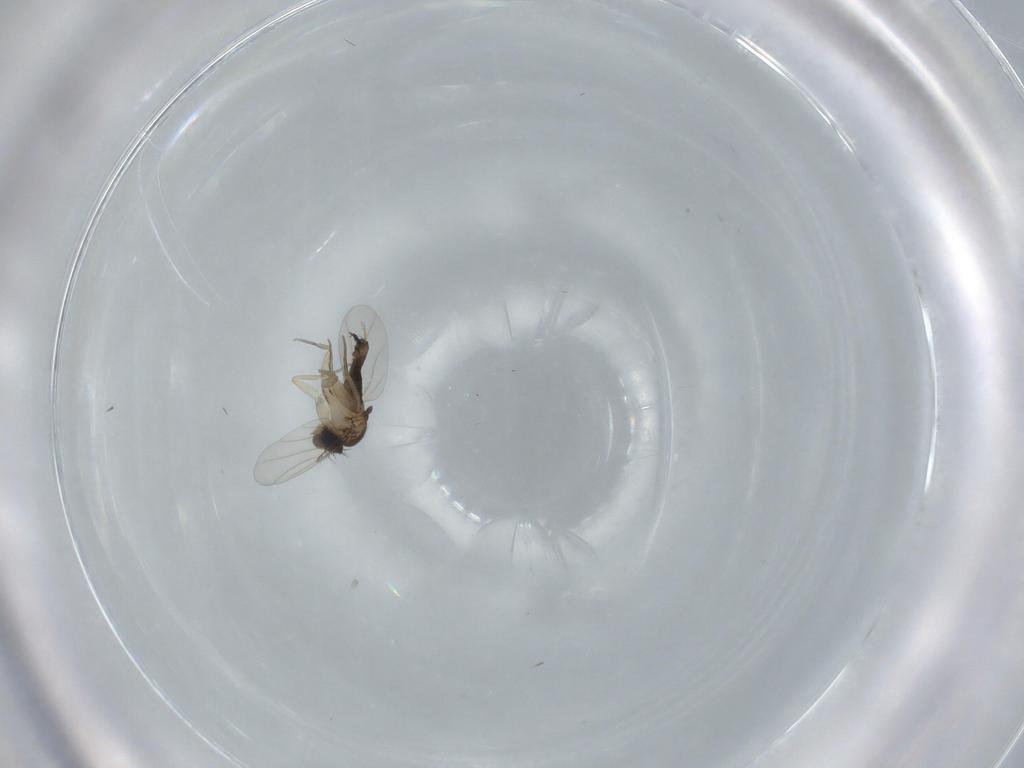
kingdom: Animalia
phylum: Arthropoda
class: Insecta
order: Diptera
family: Phoridae
